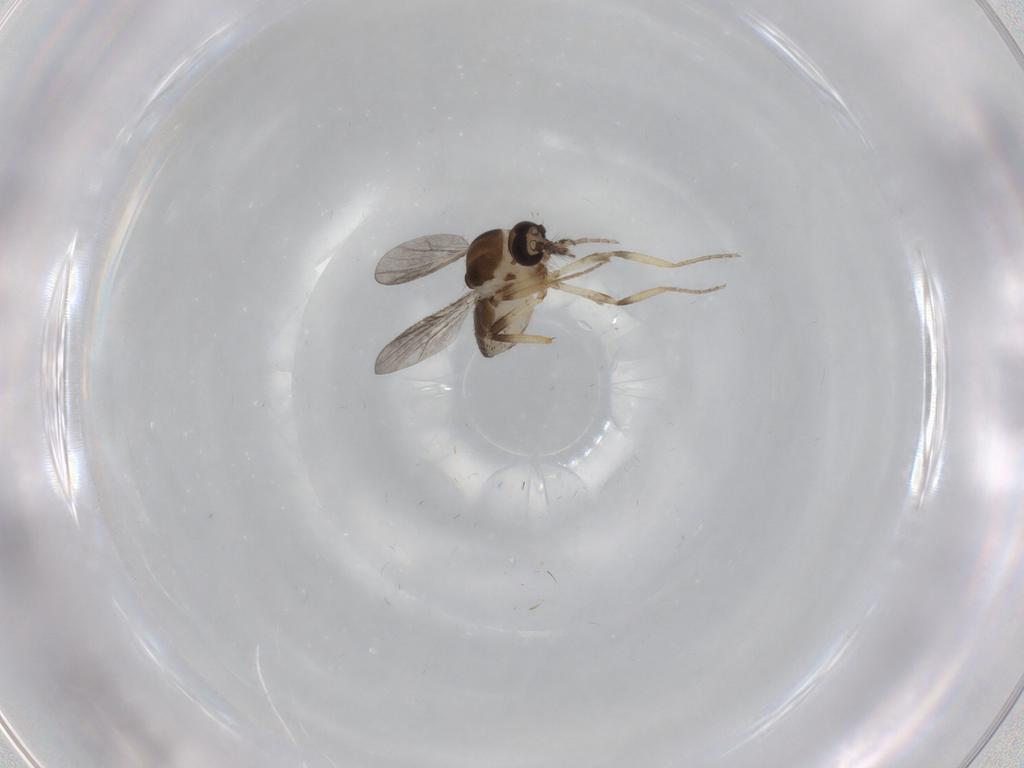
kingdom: Animalia
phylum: Arthropoda
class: Insecta
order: Diptera
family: Ceratopogonidae
